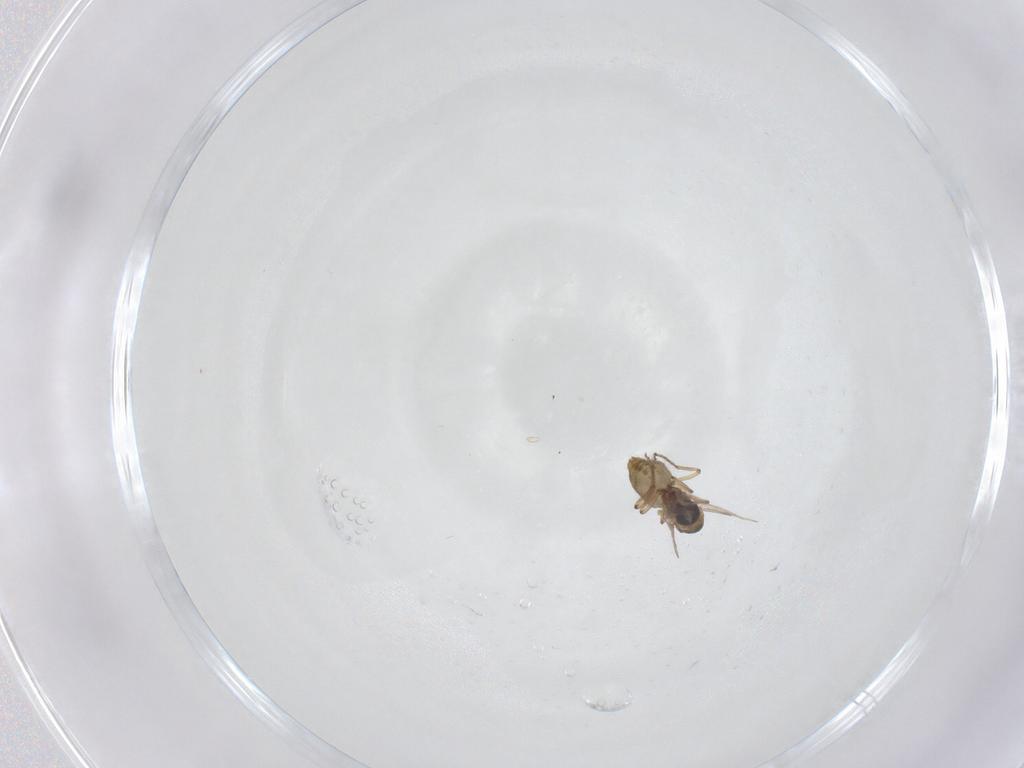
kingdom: Animalia
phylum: Arthropoda
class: Insecta
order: Diptera
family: Ceratopogonidae
